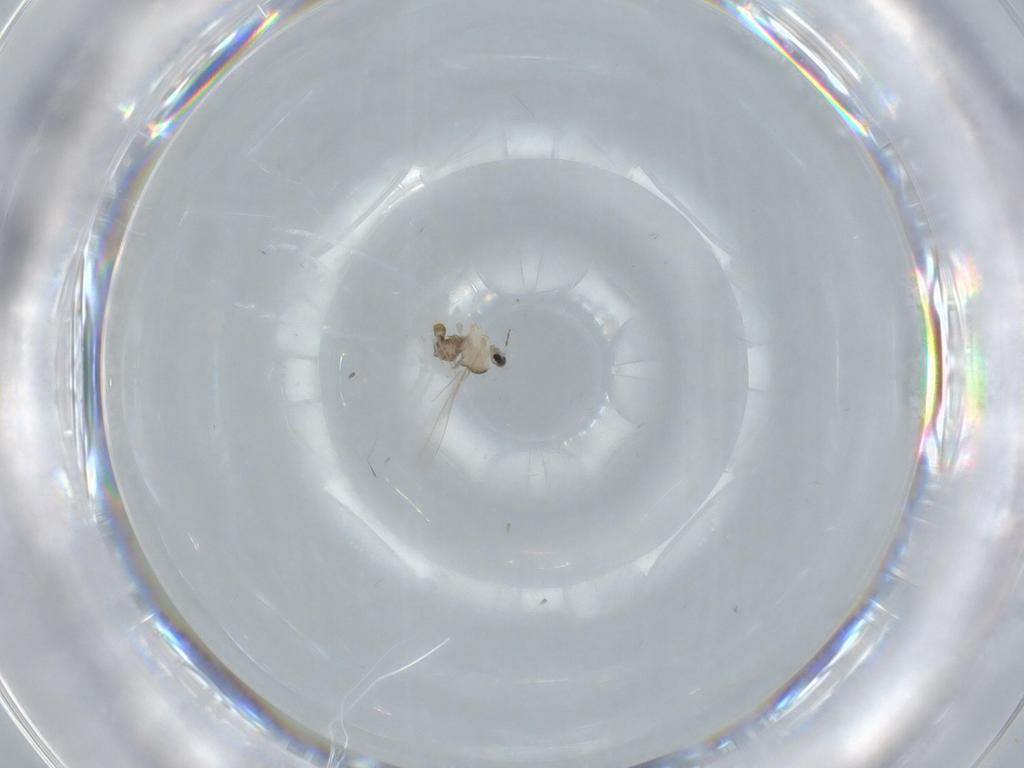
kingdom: Animalia
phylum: Arthropoda
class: Insecta
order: Diptera
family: Cecidomyiidae
